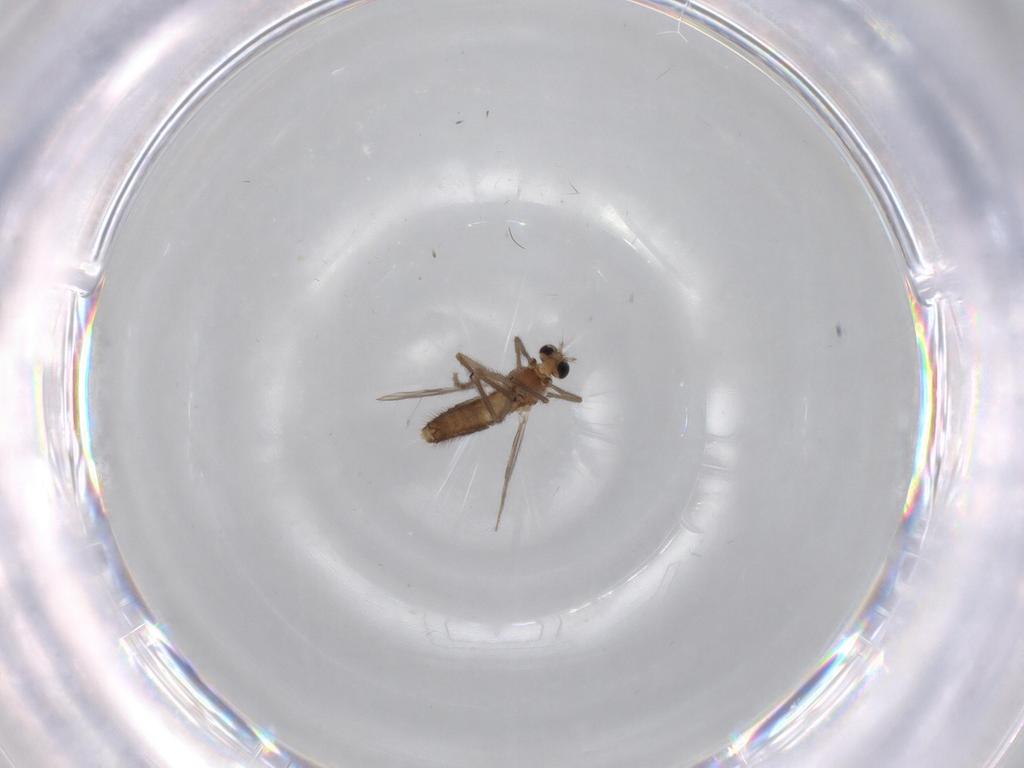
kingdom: Animalia
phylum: Arthropoda
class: Insecta
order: Diptera
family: Chironomidae
